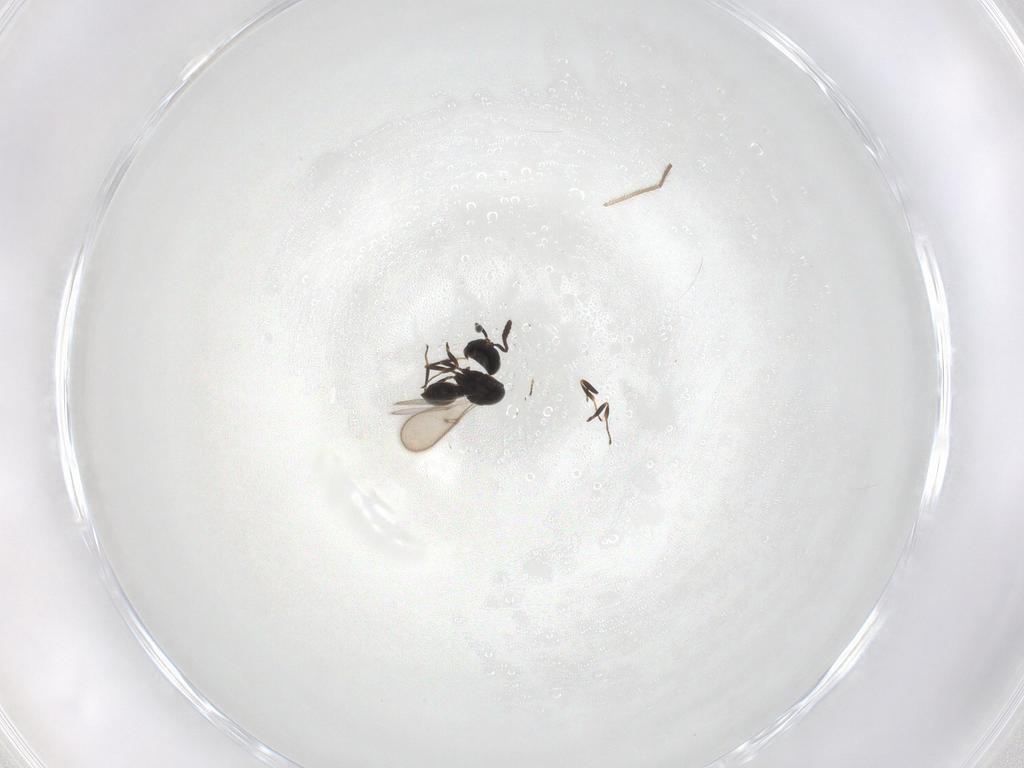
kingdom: Animalia
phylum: Arthropoda
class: Insecta
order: Hymenoptera
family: Scelionidae
